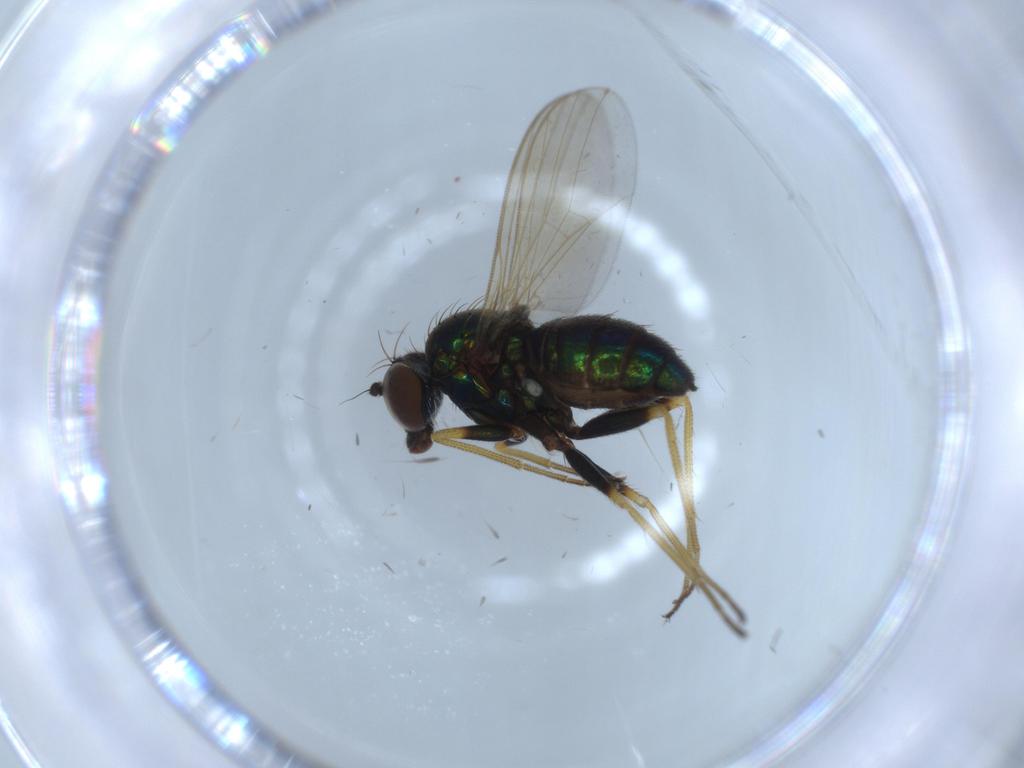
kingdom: Animalia
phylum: Arthropoda
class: Insecta
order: Diptera
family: Dolichopodidae
